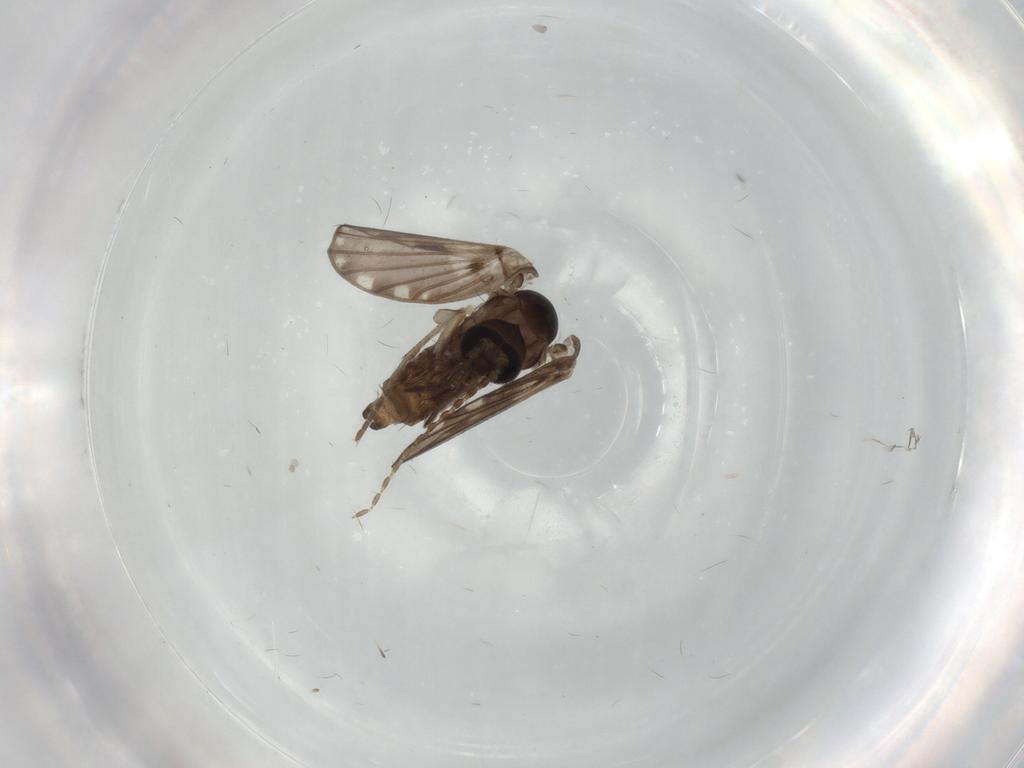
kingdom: Animalia
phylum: Arthropoda
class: Insecta
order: Diptera
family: Psychodidae
